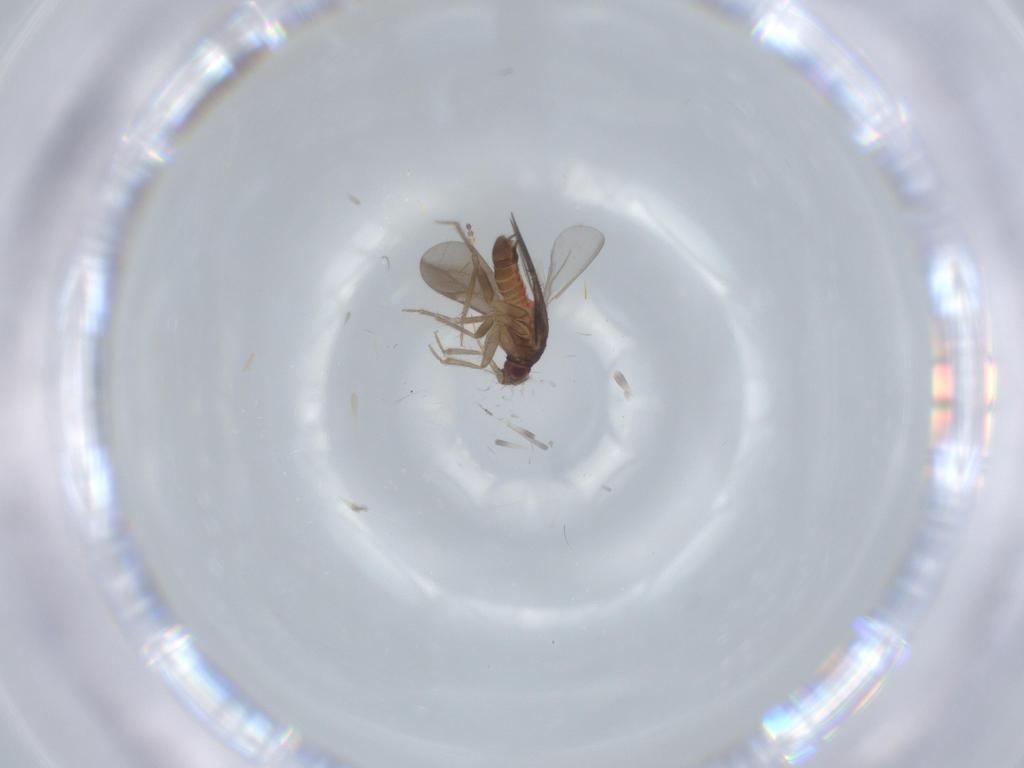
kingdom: Animalia
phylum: Arthropoda
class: Insecta
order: Hemiptera
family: Ceratocombidae
